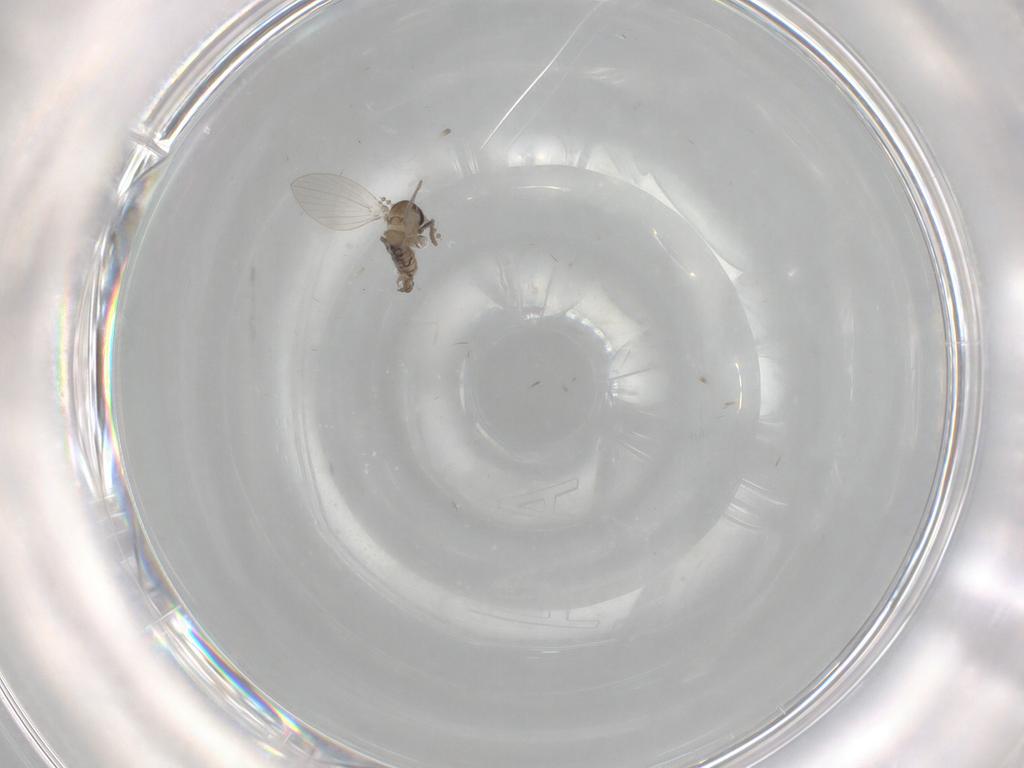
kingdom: Animalia
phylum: Arthropoda
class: Insecta
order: Diptera
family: Psychodidae
